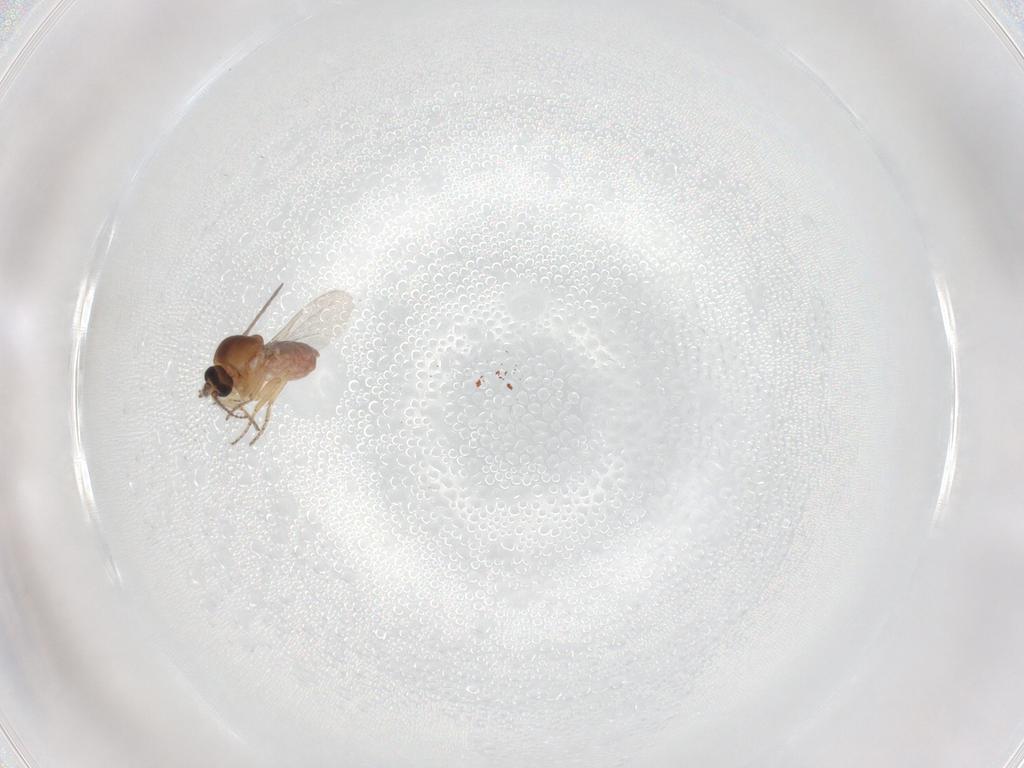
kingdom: Animalia
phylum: Arthropoda
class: Insecta
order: Diptera
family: Ceratopogonidae
